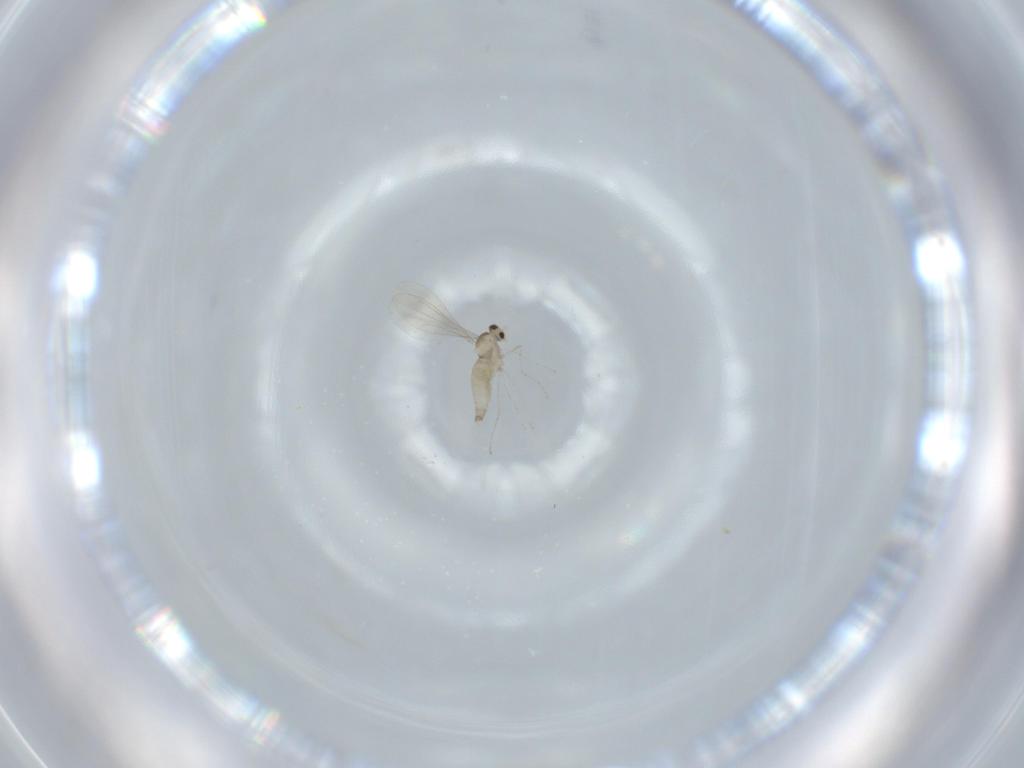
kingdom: Animalia
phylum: Arthropoda
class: Insecta
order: Diptera
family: Cecidomyiidae
